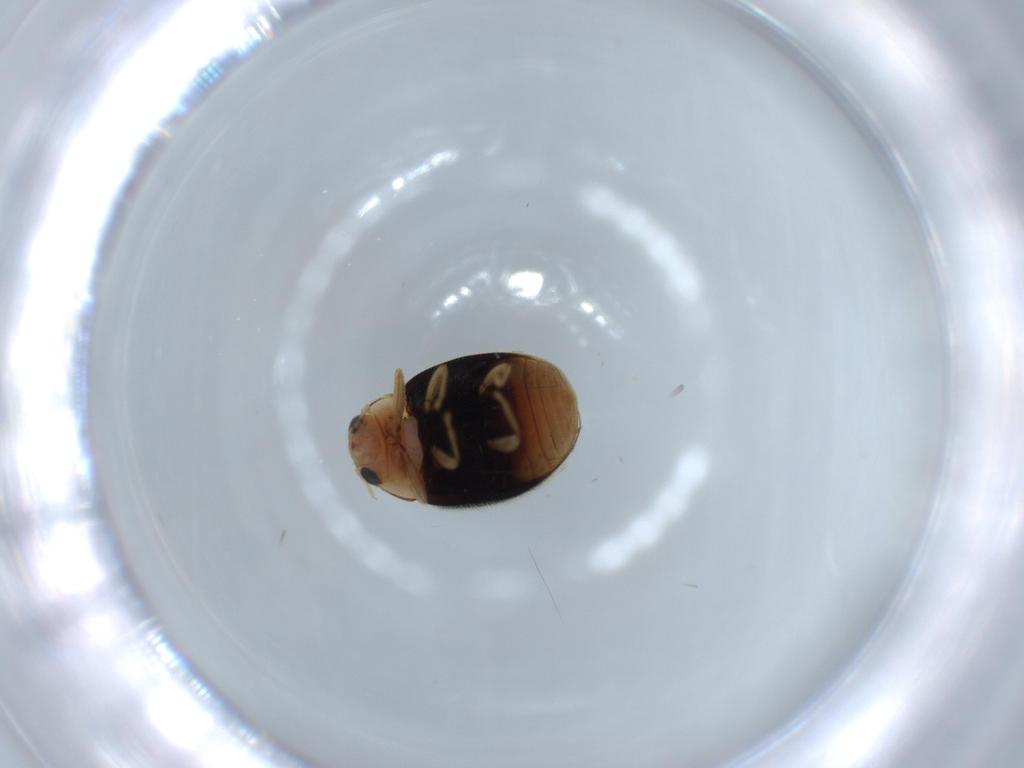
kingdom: Animalia
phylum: Arthropoda
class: Insecta
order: Coleoptera
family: Coccinellidae
